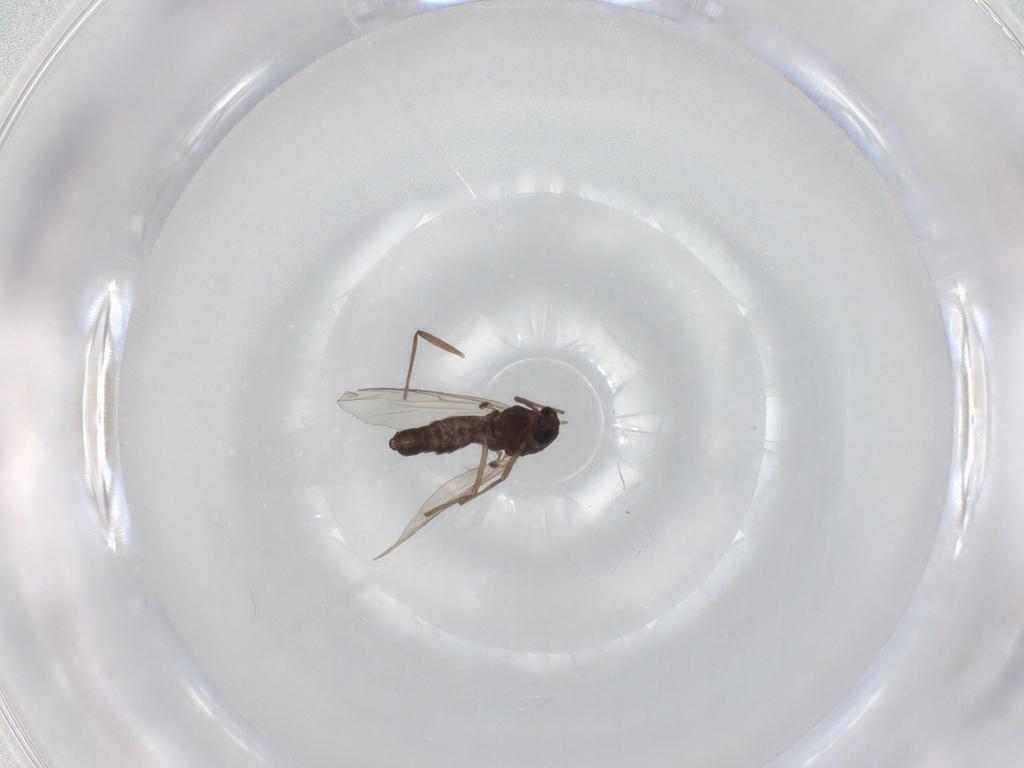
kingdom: Animalia
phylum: Arthropoda
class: Insecta
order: Diptera
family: Chironomidae
